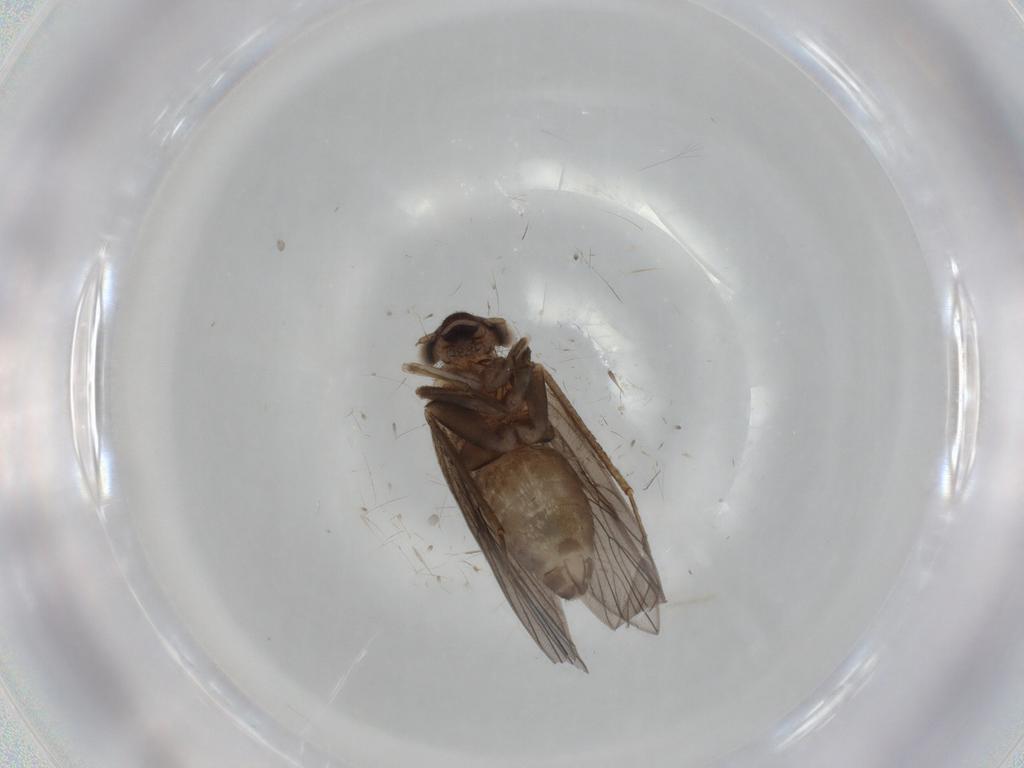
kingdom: Animalia
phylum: Arthropoda
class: Insecta
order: Psocodea
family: Lepidopsocidae
